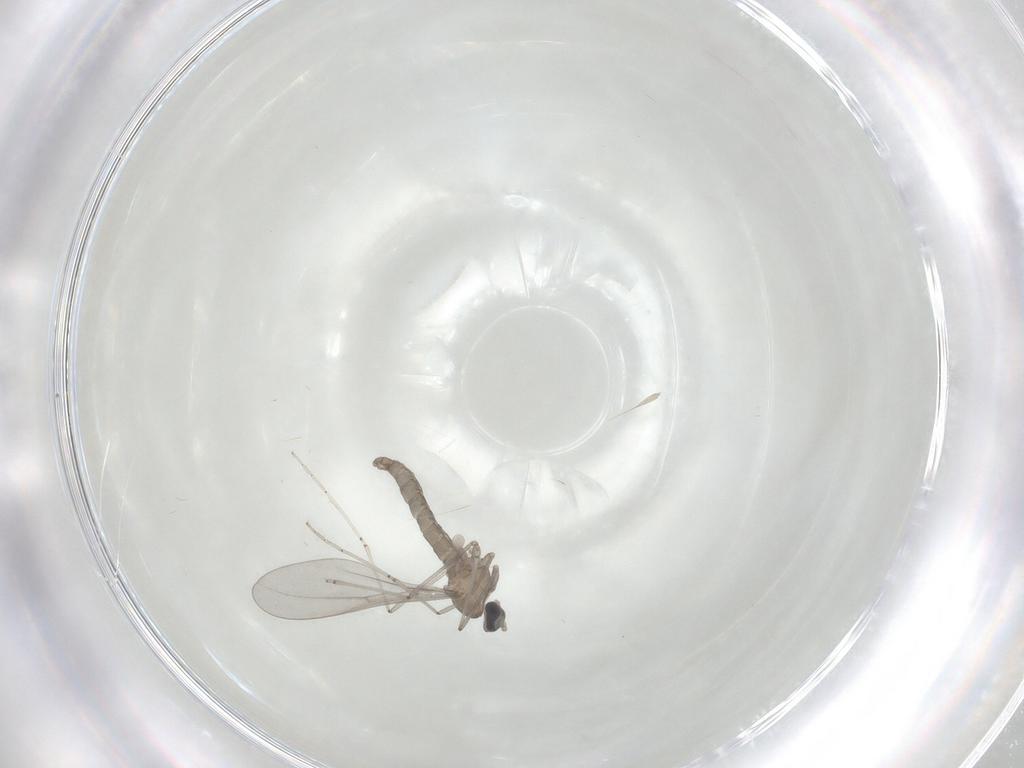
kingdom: Animalia
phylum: Arthropoda
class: Insecta
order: Diptera
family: Cecidomyiidae
